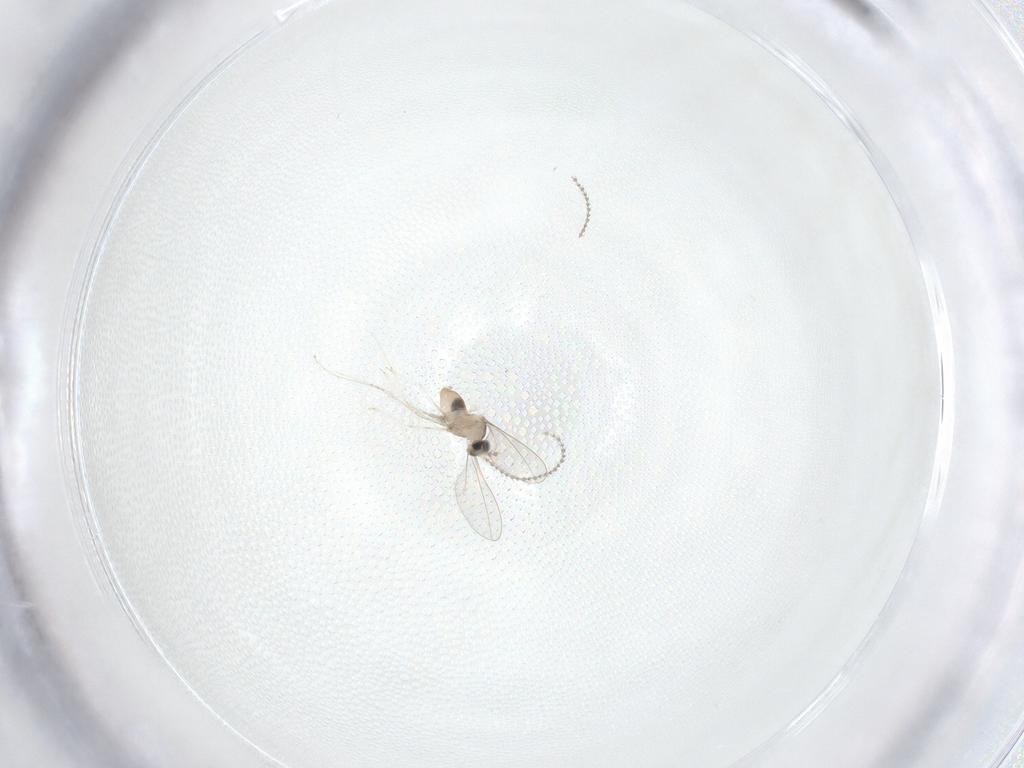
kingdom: Animalia
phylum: Arthropoda
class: Insecta
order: Diptera
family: Cecidomyiidae
